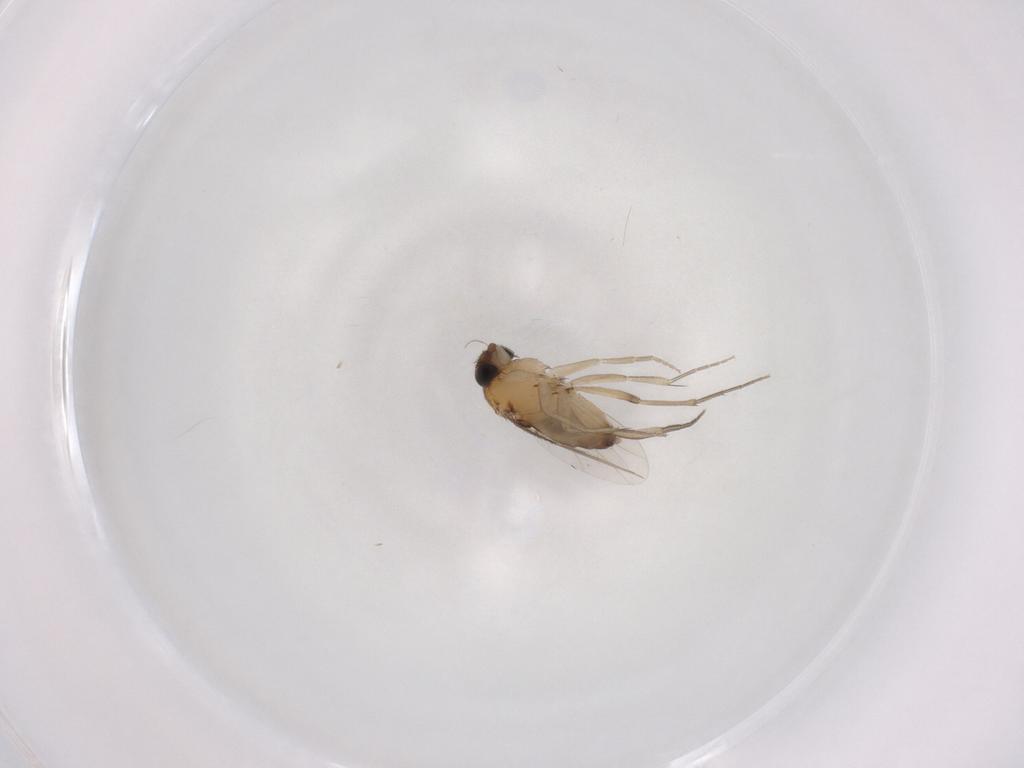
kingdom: Animalia
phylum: Arthropoda
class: Insecta
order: Diptera
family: Phoridae
